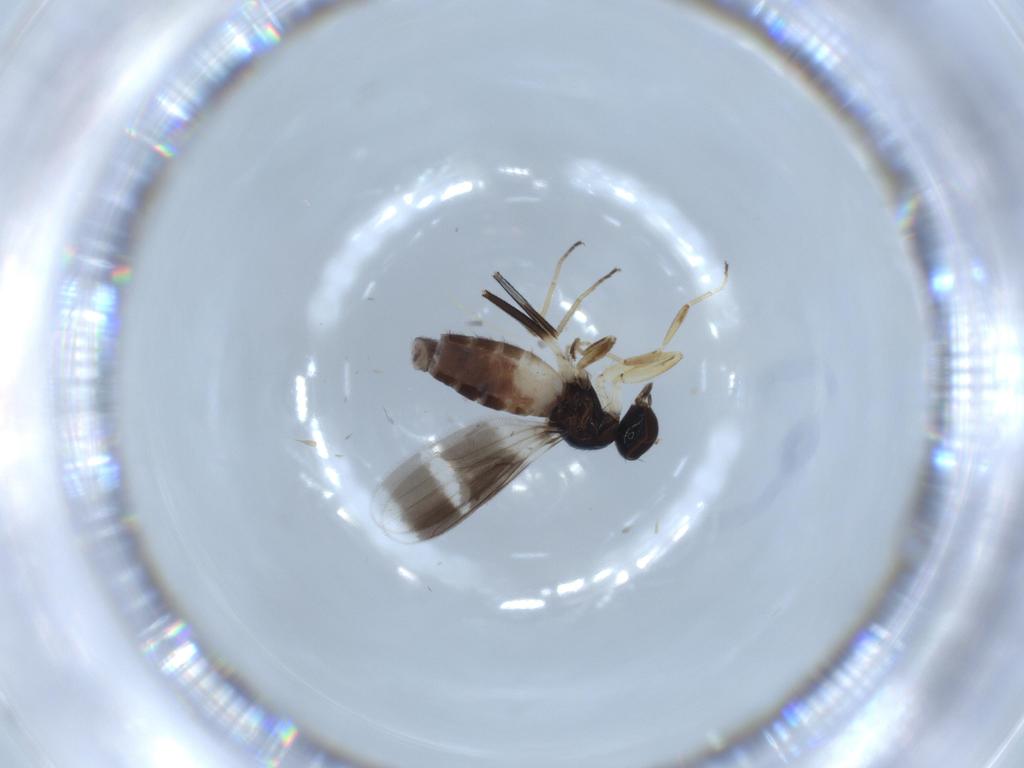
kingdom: Animalia
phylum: Arthropoda
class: Insecta
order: Diptera
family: Hybotidae
